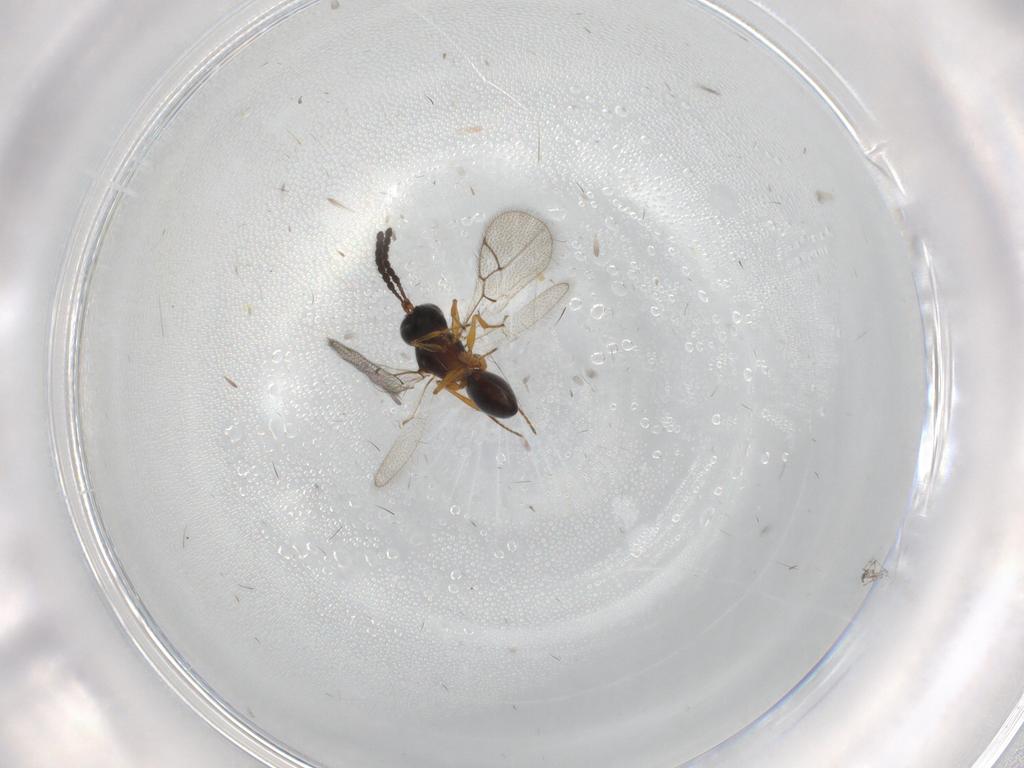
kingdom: Animalia
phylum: Arthropoda
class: Insecta
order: Hymenoptera
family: Figitidae
